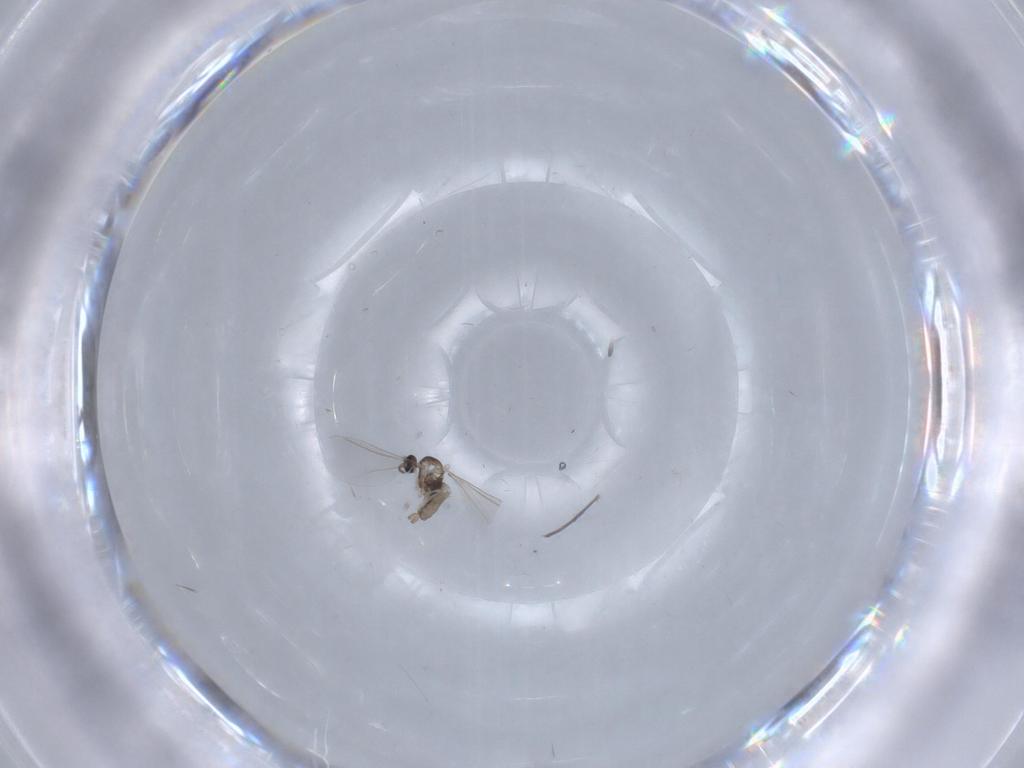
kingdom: Animalia
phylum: Arthropoda
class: Insecta
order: Diptera
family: Cecidomyiidae
